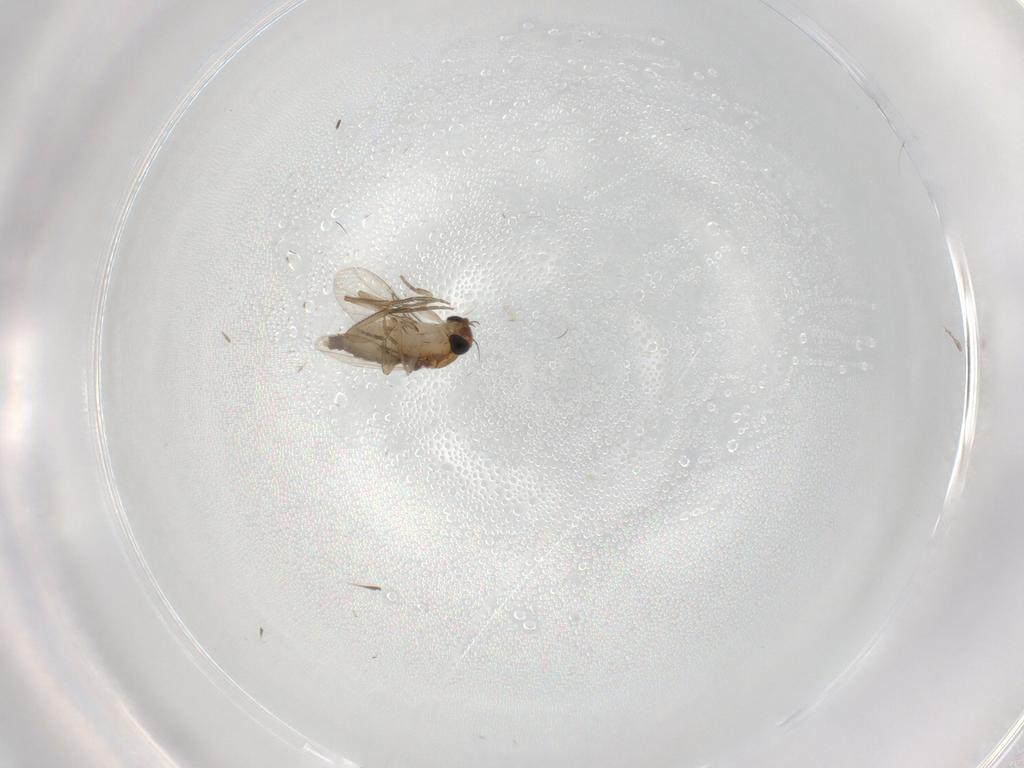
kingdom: Animalia
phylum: Arthropoda
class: Insecta
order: Diptera
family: Phoridae
